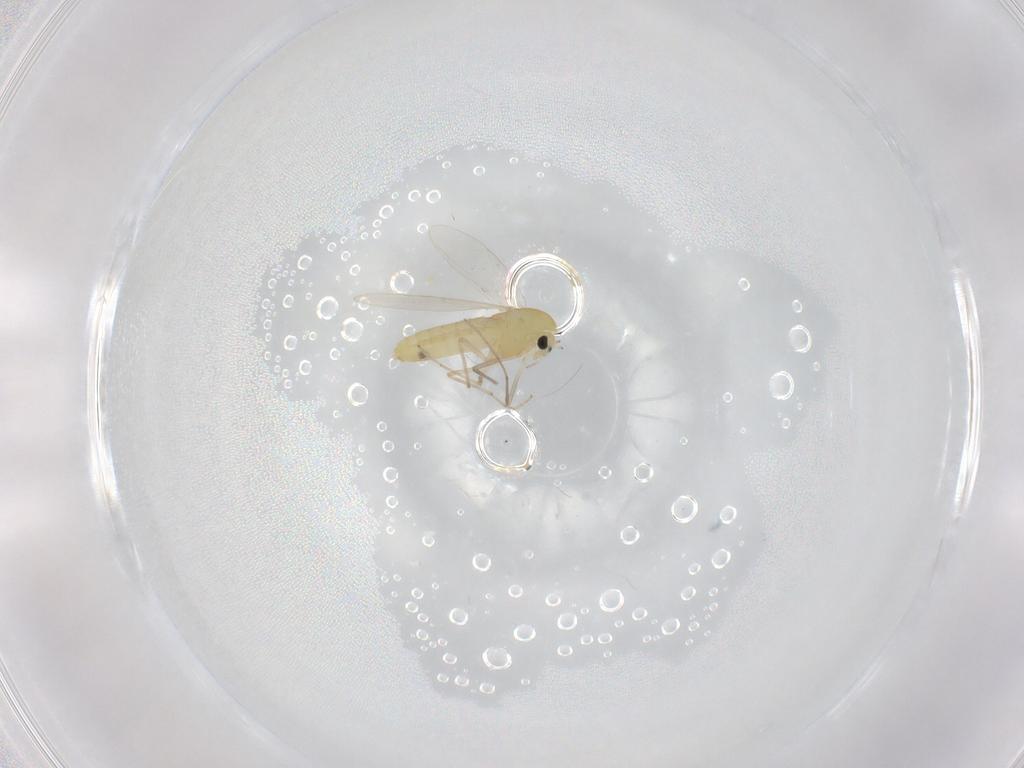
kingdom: Animalia
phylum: Arthropoda
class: Insecta
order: Diptera
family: Chironomidae
